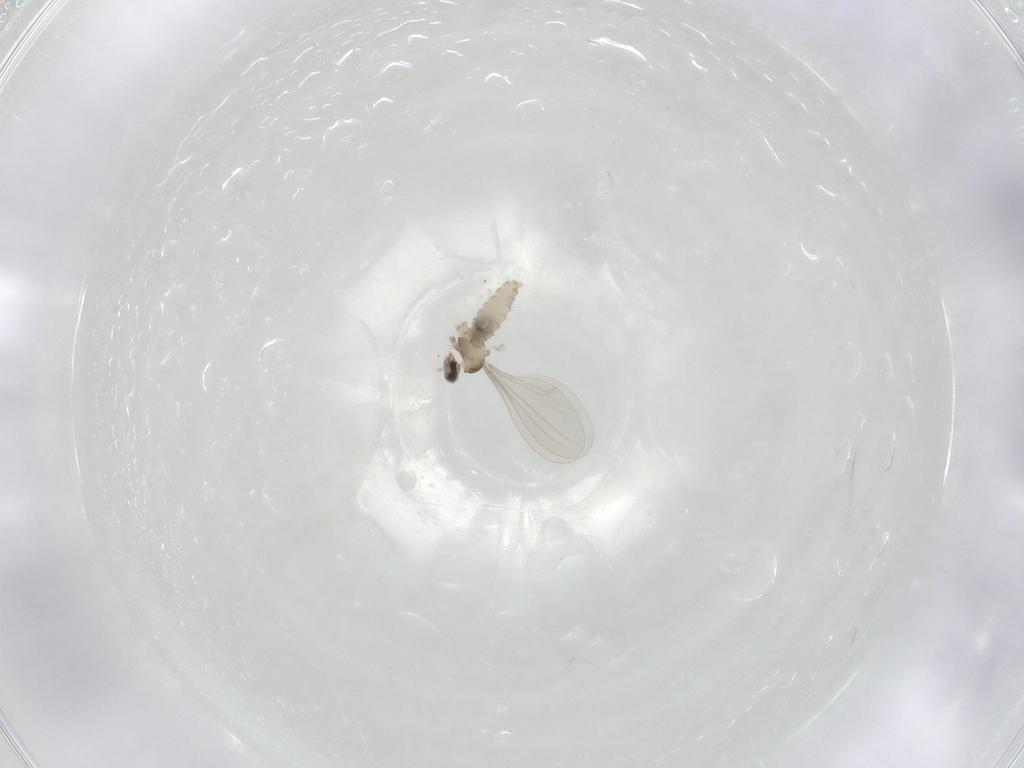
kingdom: Animalia
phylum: Arthropoda
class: Insecta
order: Diptera
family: Cecidomyiidae
